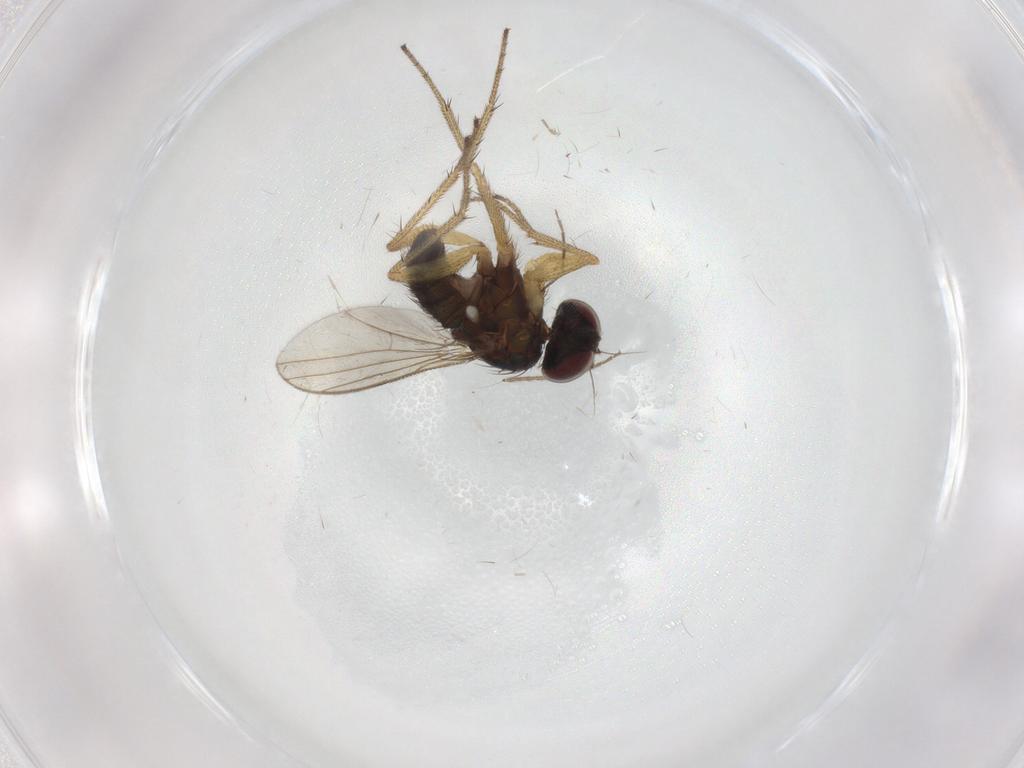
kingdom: Animalia
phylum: Arthropoda
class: Insecta
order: Diptera
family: Chironomidae
